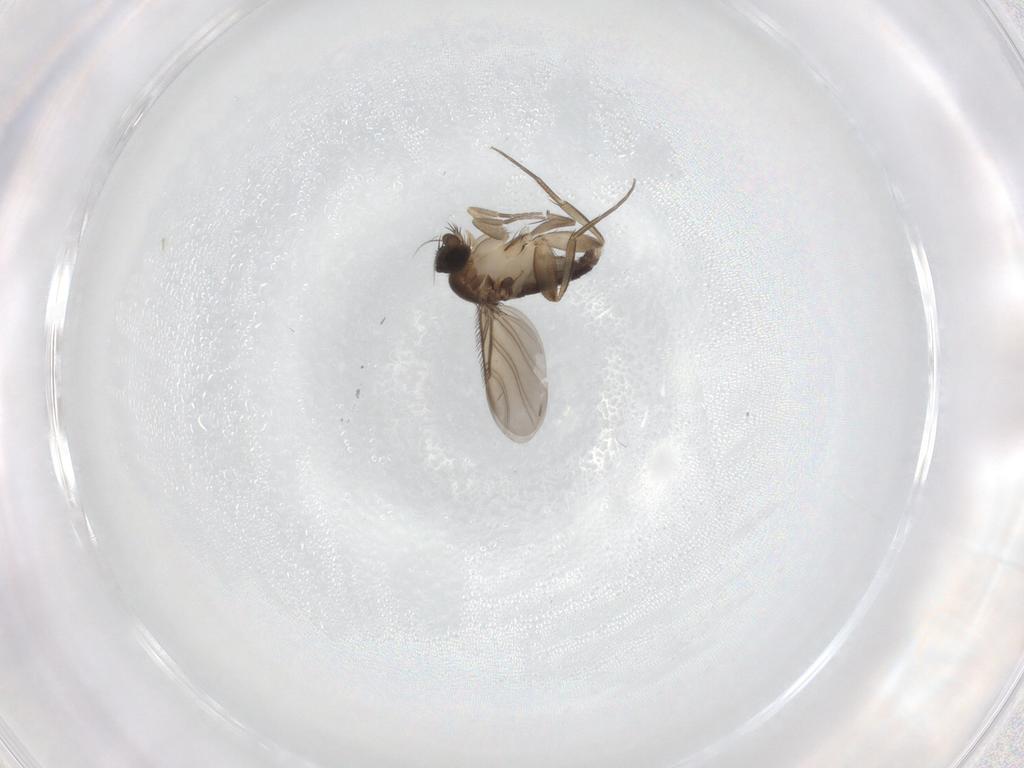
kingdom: Animalia
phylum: Arthropoda
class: Insecta
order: Diptera
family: Phoridae
